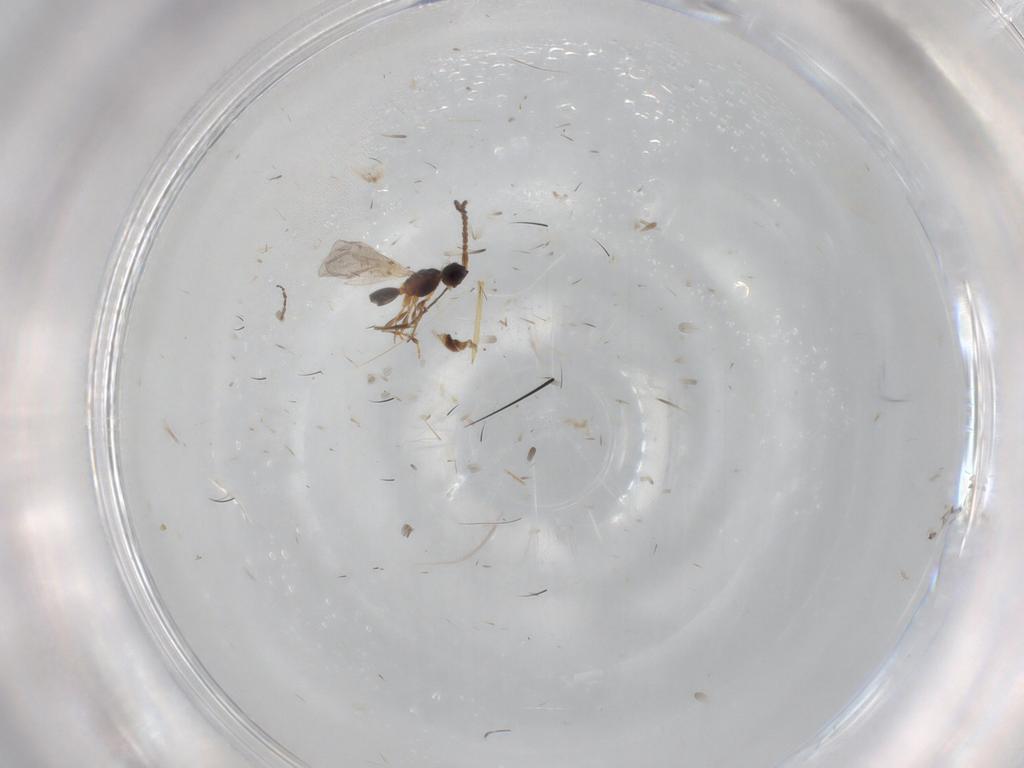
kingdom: Animalia
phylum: Arthropoda
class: Insecta
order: Hymenoptera
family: Diapriidae
